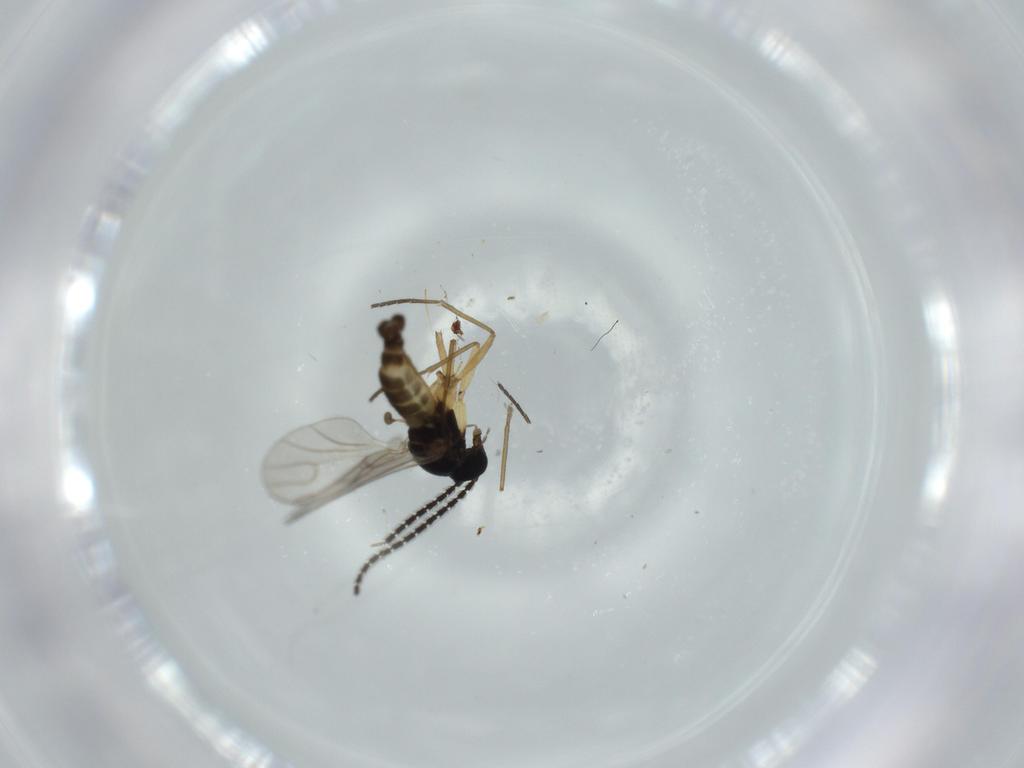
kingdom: Animalia
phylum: Arthropoda
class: Insecta
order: Diptera
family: Sciaridae
